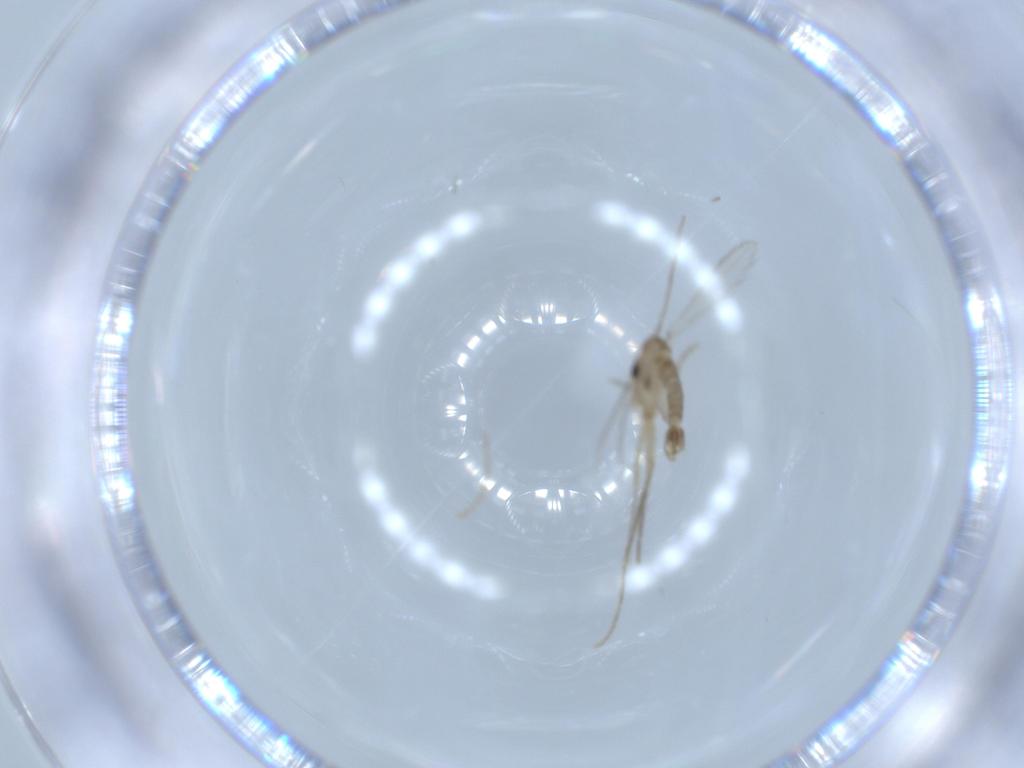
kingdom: Animalia
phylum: Arthropoda
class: Insecta
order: Diptera
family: Psychodidae
